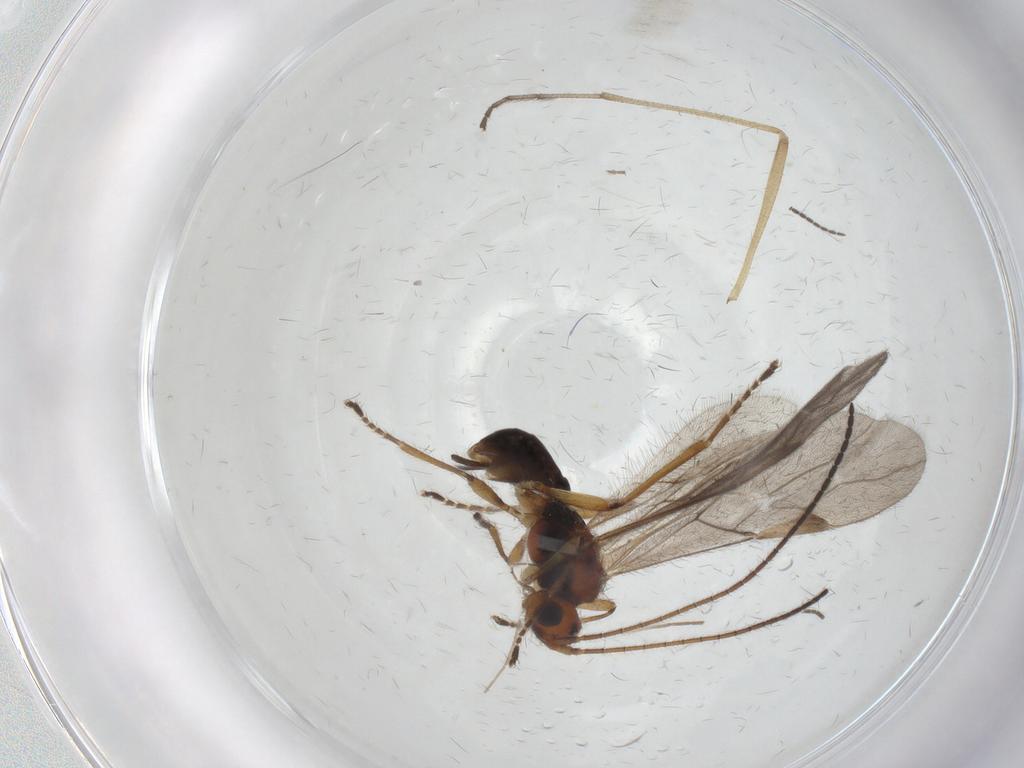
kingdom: Animalia
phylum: Arthropoda
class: Insecta
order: Hymenoptera
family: Braconidae
